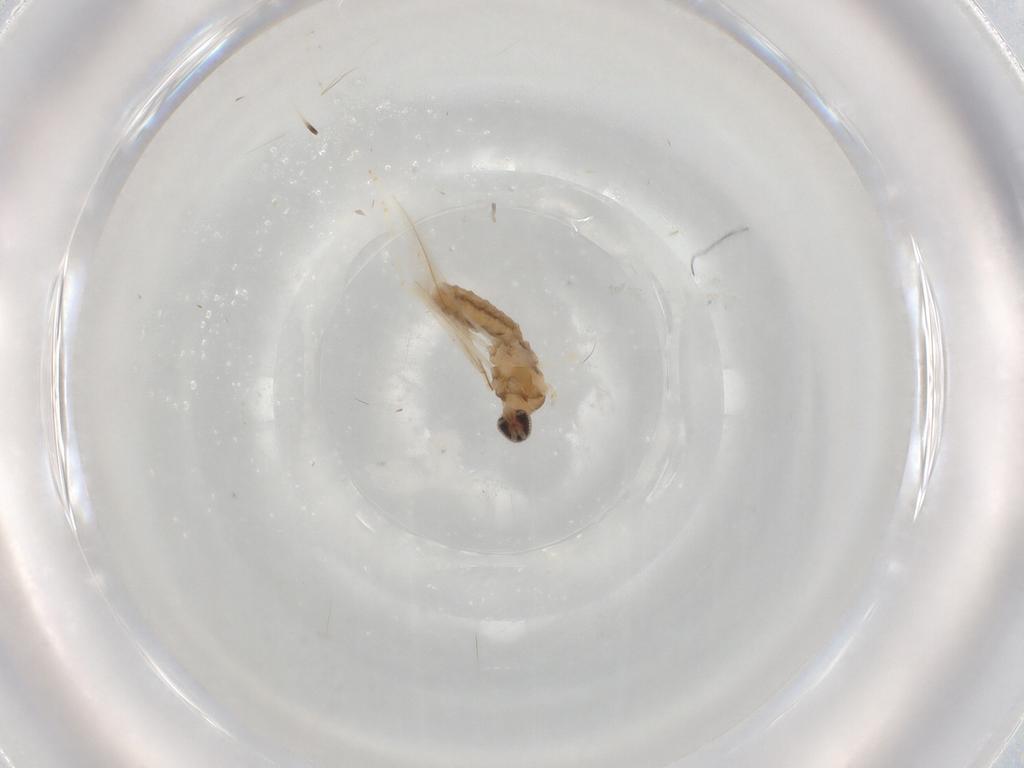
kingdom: Animalia
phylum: Arthropoda
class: Insecta
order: Diptera
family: Cecidomyiidae
